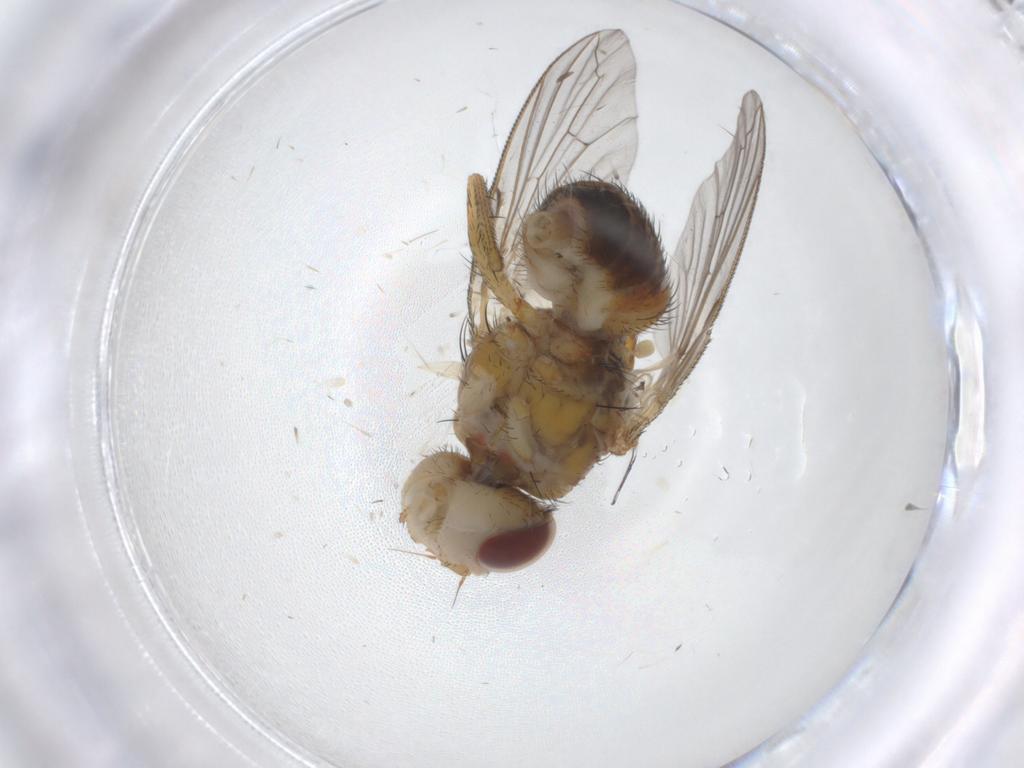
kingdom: Animalia
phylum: Arthropoda
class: Insecta
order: Diptera
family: Tachinidae
